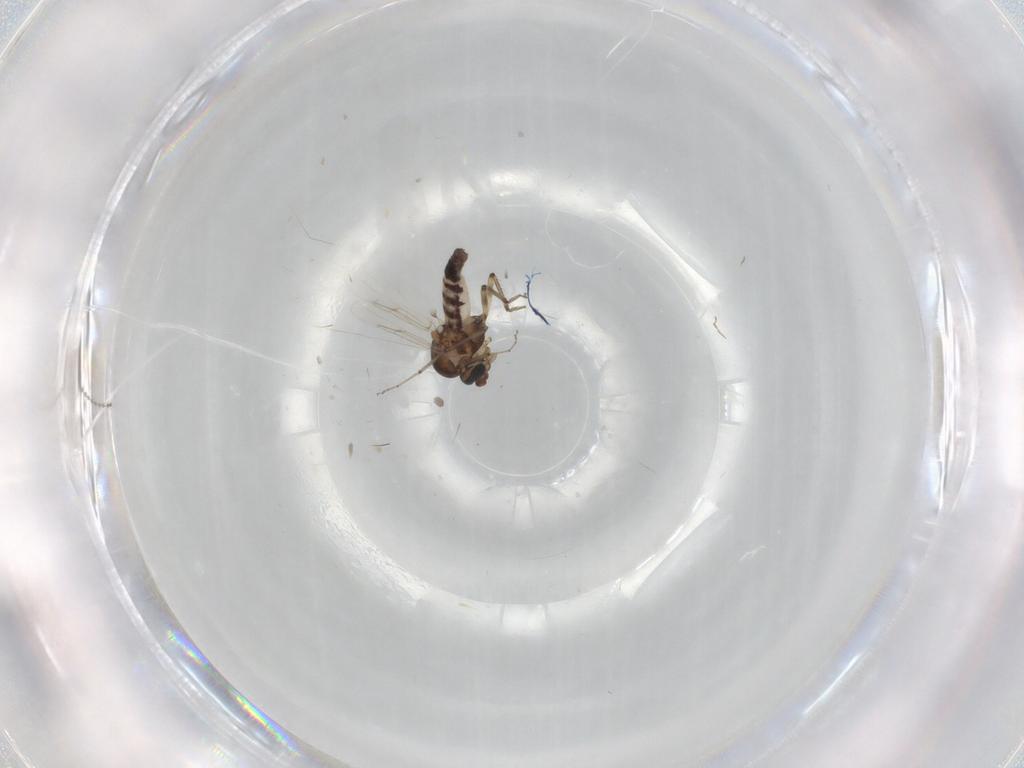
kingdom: Animalia
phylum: Arthropoda
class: Insecta
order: Diptera
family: Ceratopogonidae
